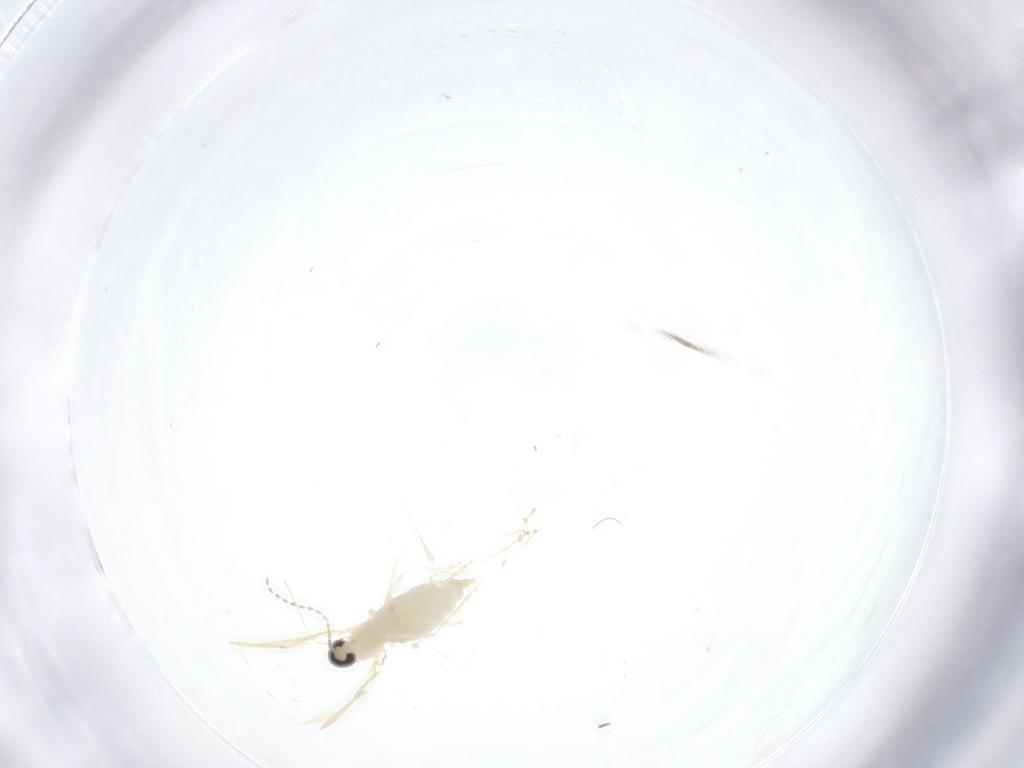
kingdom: Animalia
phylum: Arthropoda
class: Insecta
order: Diptera
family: Cecidomyiidae
